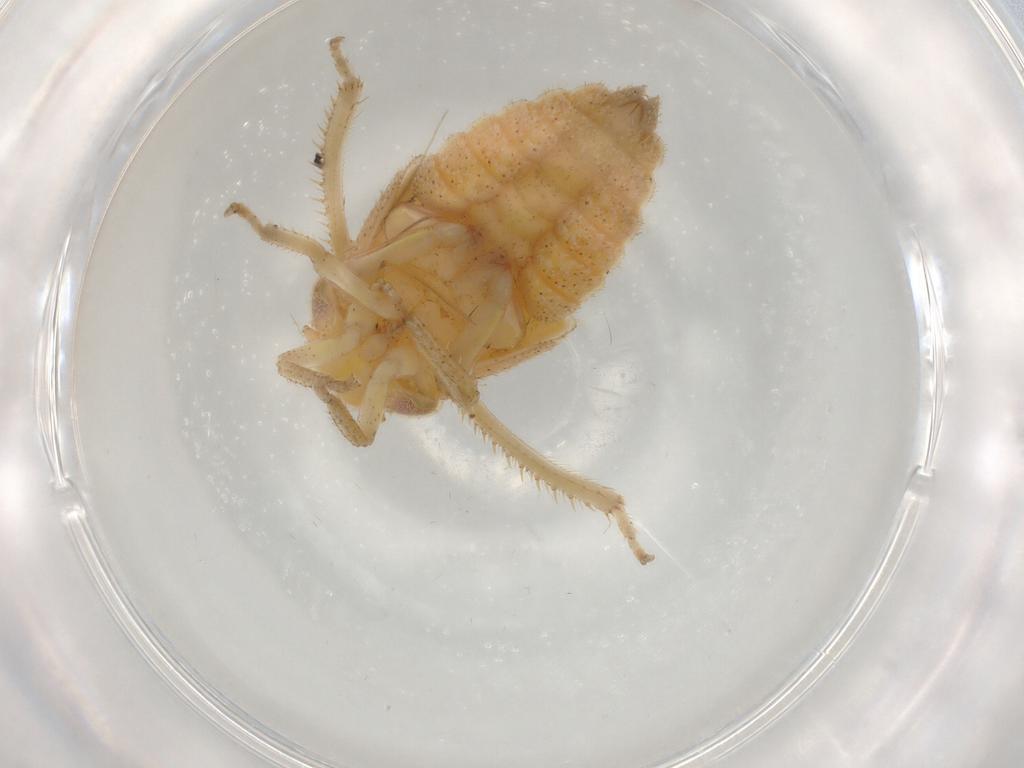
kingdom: Animalia
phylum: Arthropoda
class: Insecta
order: Hemiptera
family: Cicadellidae
